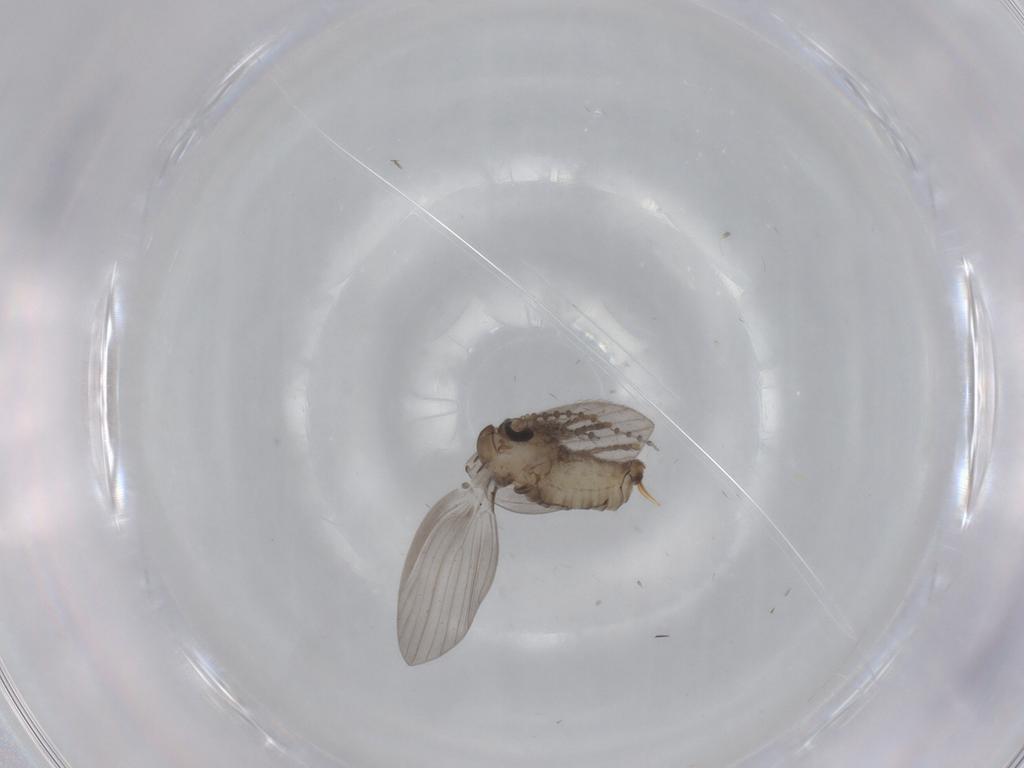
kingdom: Animalia
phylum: Arthropoda
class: Insecta
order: Diptera
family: Psychodidae
